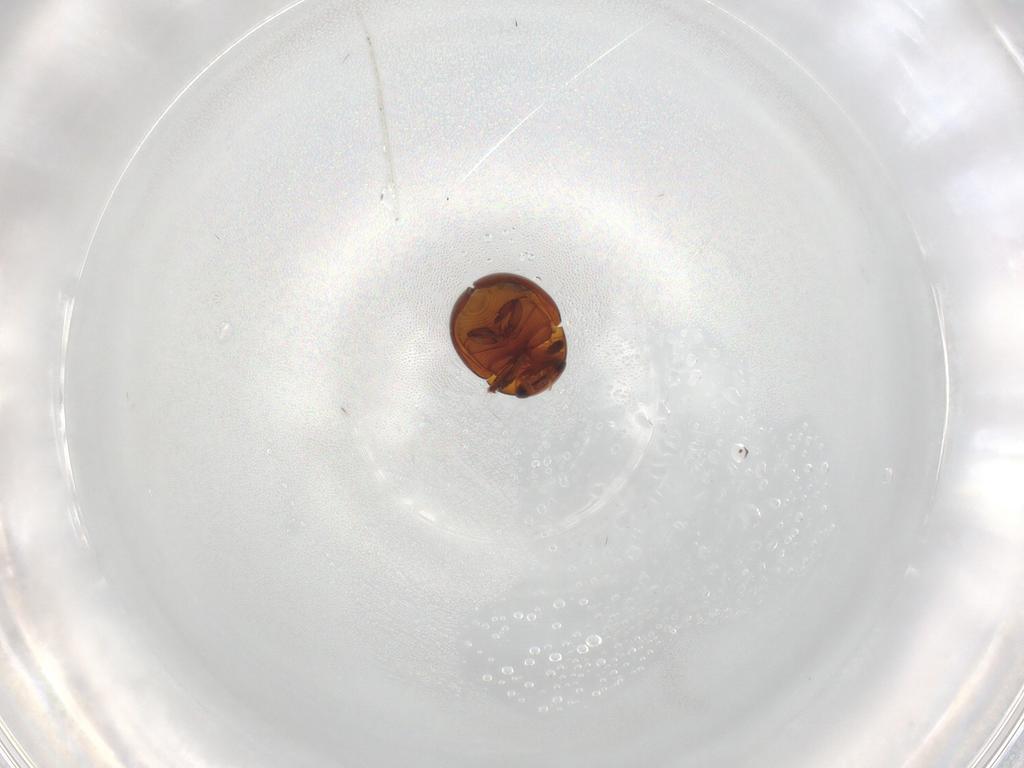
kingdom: Animalia
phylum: Arthropoda
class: Insecta
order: Coleoptera
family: Leiodidae
